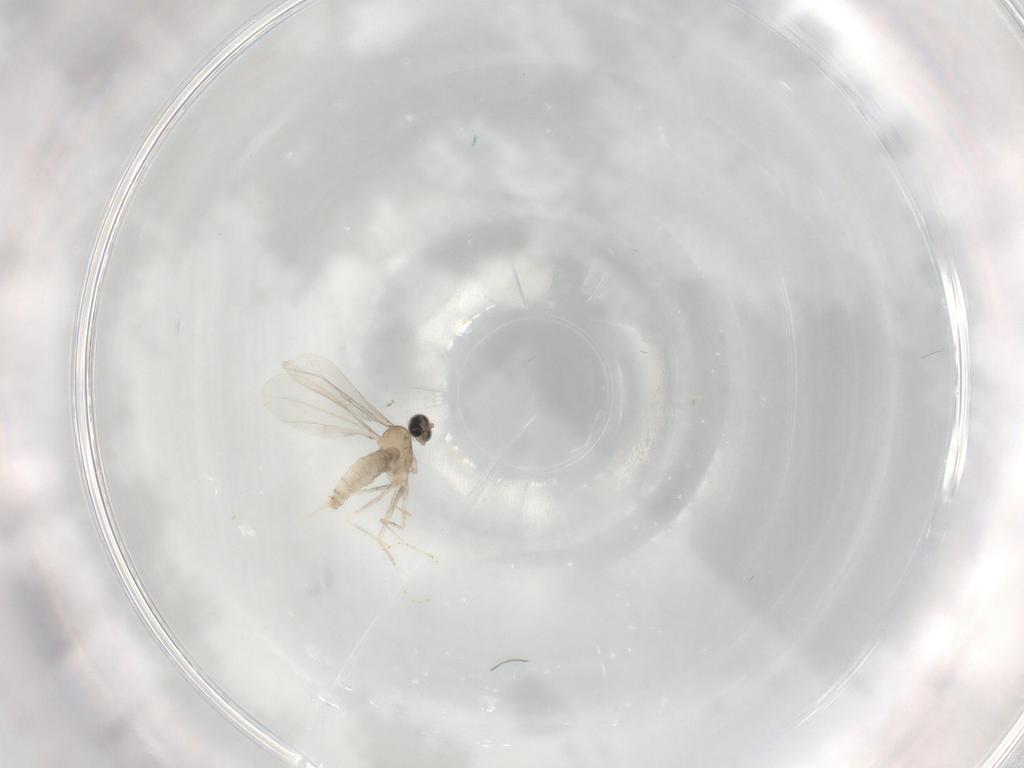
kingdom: Animalia
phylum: Arthropoda
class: Insecta
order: Diptera
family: Cecidomyiidae
